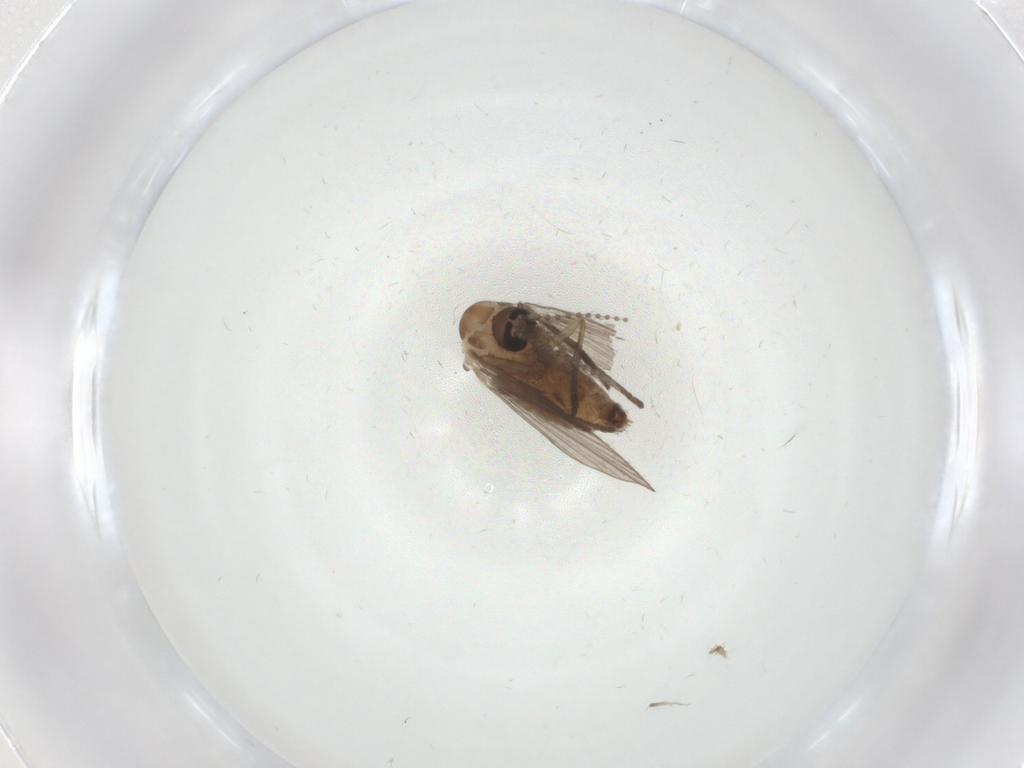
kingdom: Animalia
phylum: Arthropoda
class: Insecta
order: Diptera
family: Psychodidae
